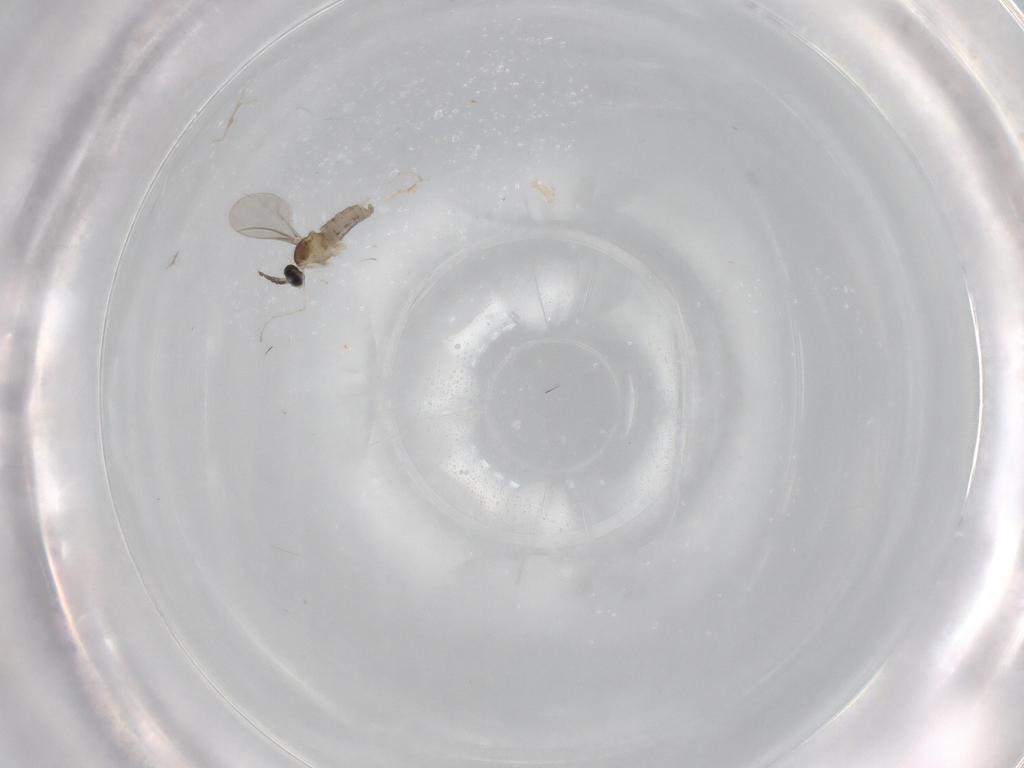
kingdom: Animalia
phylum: Arthropoda
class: Insecta
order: Diptera
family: Cecidomyiidae
